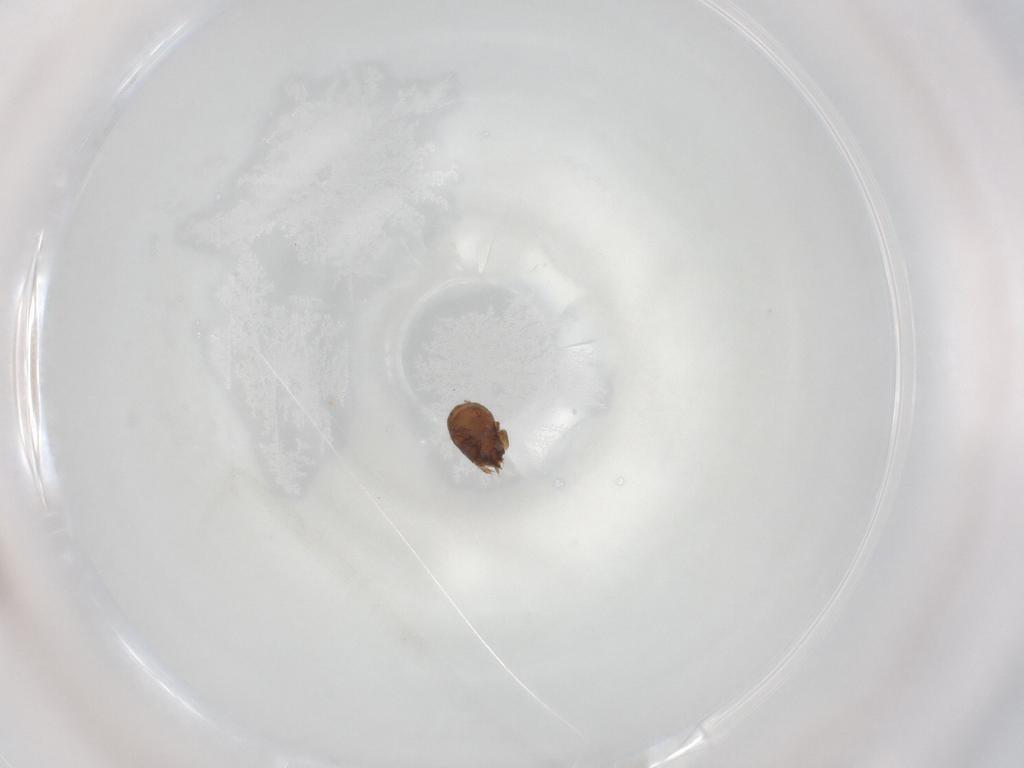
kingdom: Animalia
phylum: Arthropoda
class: Arachnida
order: Sarcoptiformes
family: Phenopelopidae
